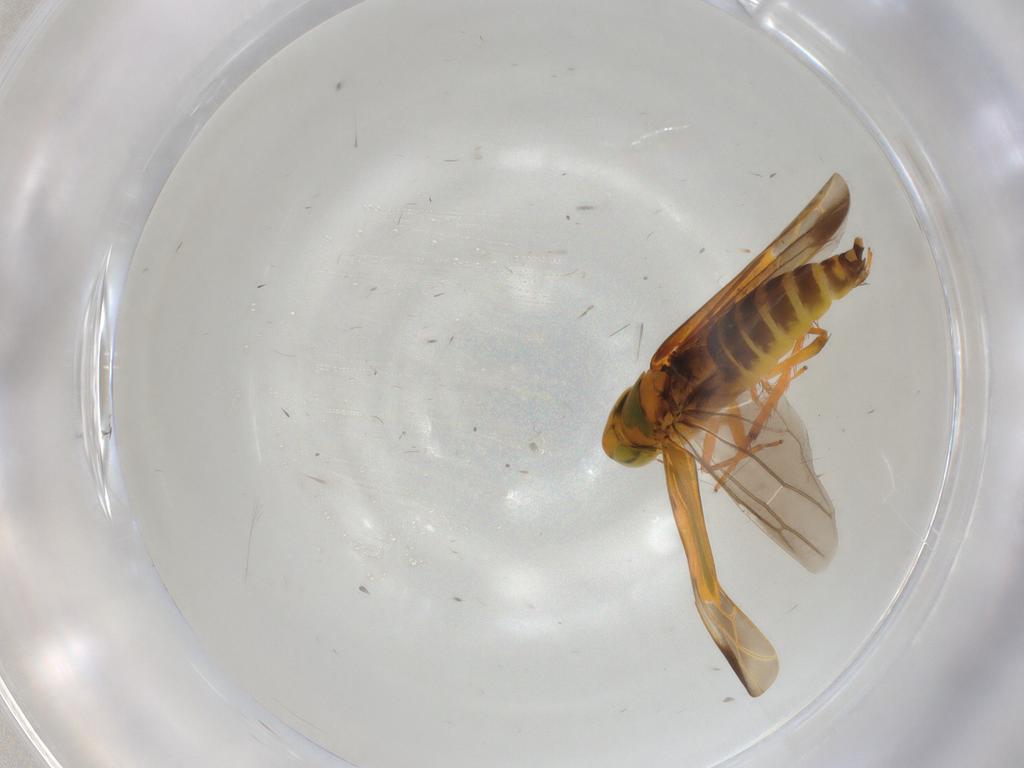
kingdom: Animalia
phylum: Arthropoda
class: Insecta
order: Hemiptera
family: Cicadellidae
